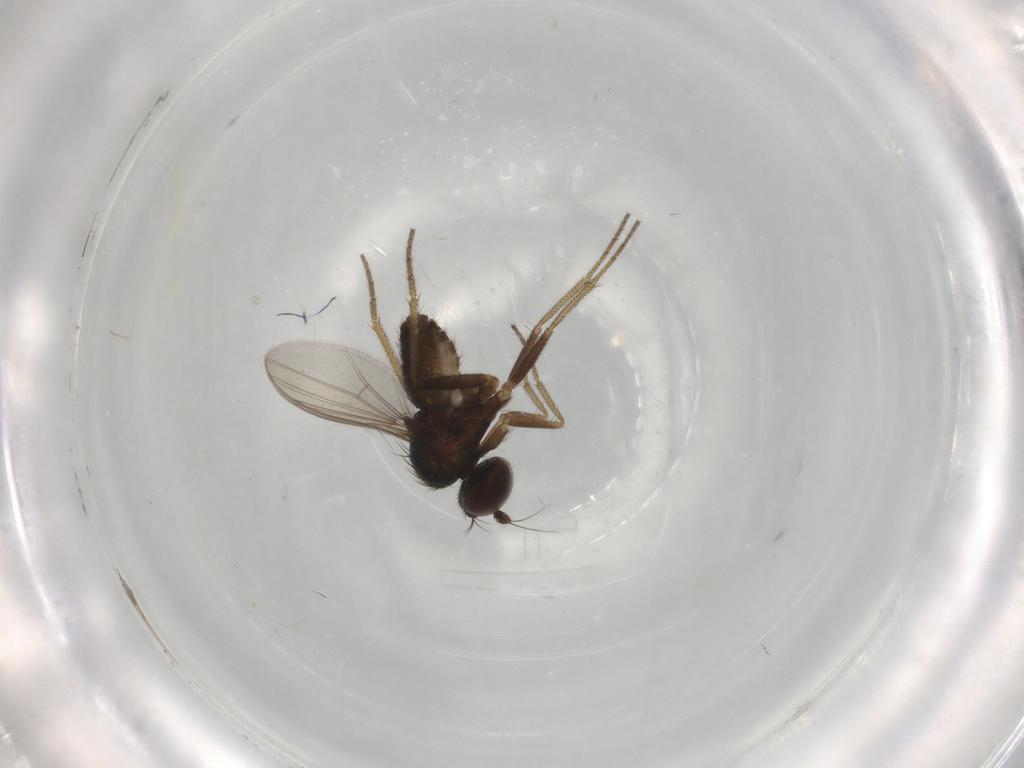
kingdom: Animalia
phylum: Arthropoda
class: Insecta
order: Diptera
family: Dolichopodidae
